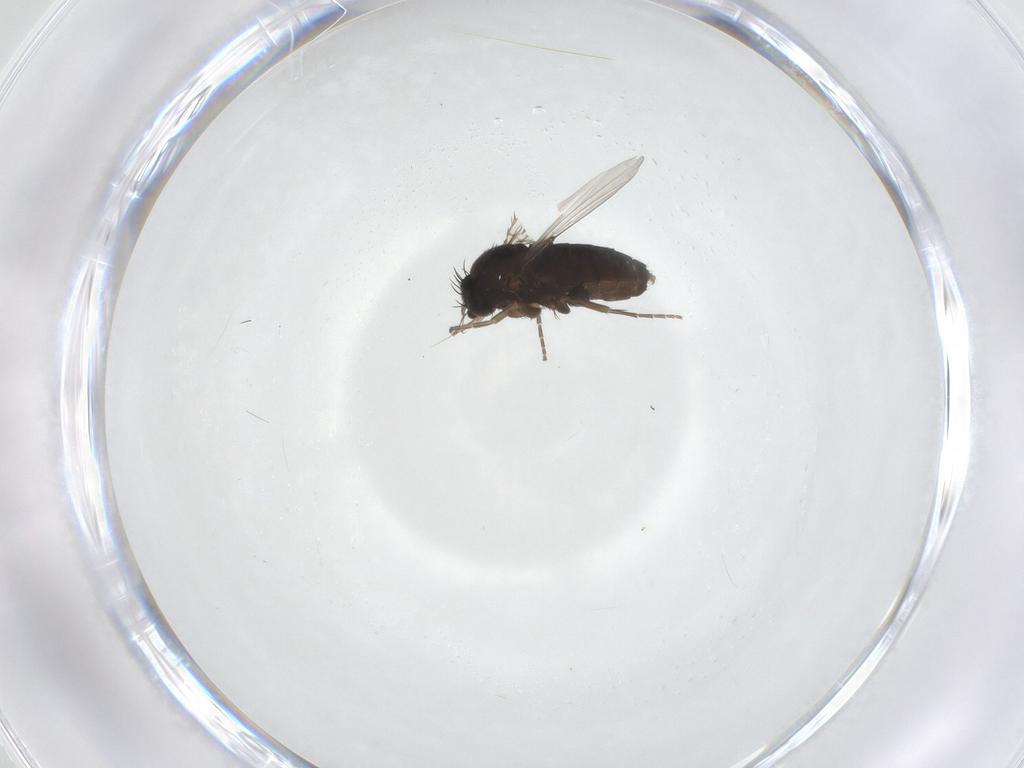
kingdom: Animalia
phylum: Arthropoda
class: Insecta
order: Diptera
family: Phoridae
